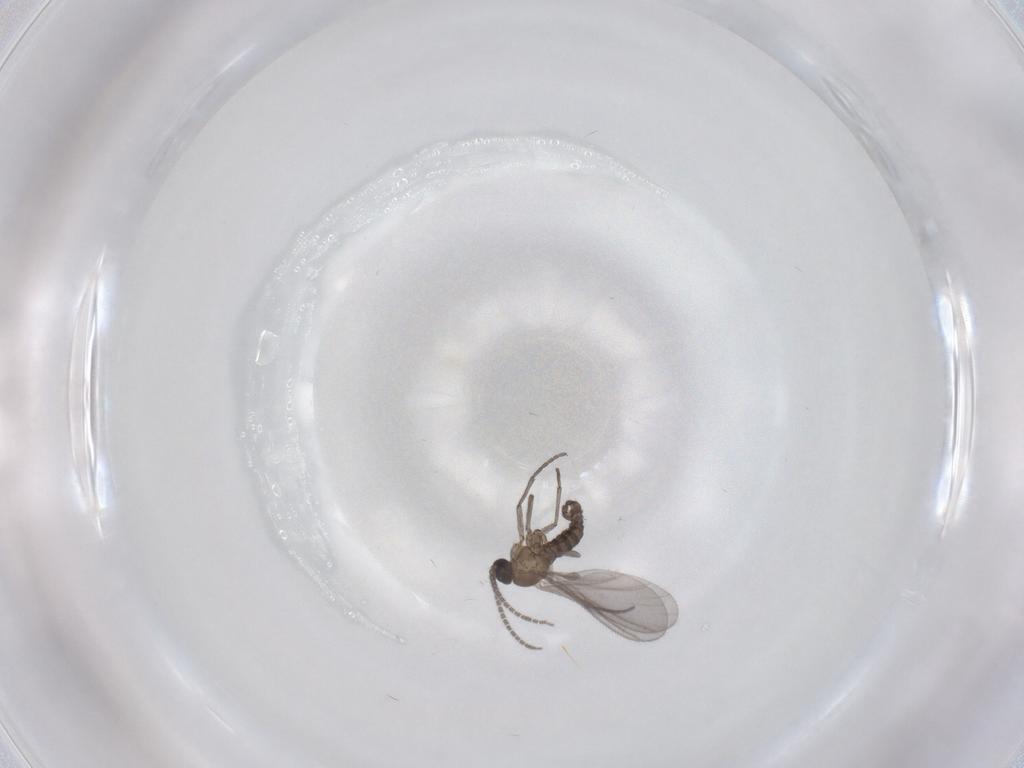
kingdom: Animalia
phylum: Arthropoda
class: Insecta
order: Diptera
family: Sciaridae
